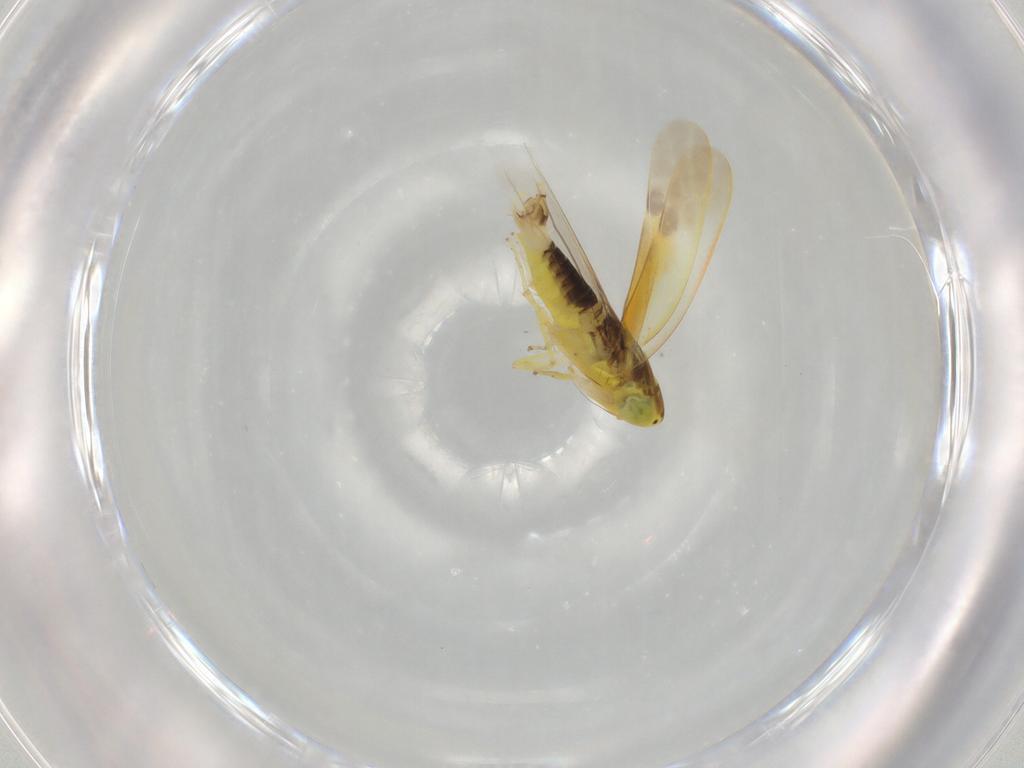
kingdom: Animalia
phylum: Arthropoda
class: Insecta
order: Hemiptera
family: Cicadellidae
